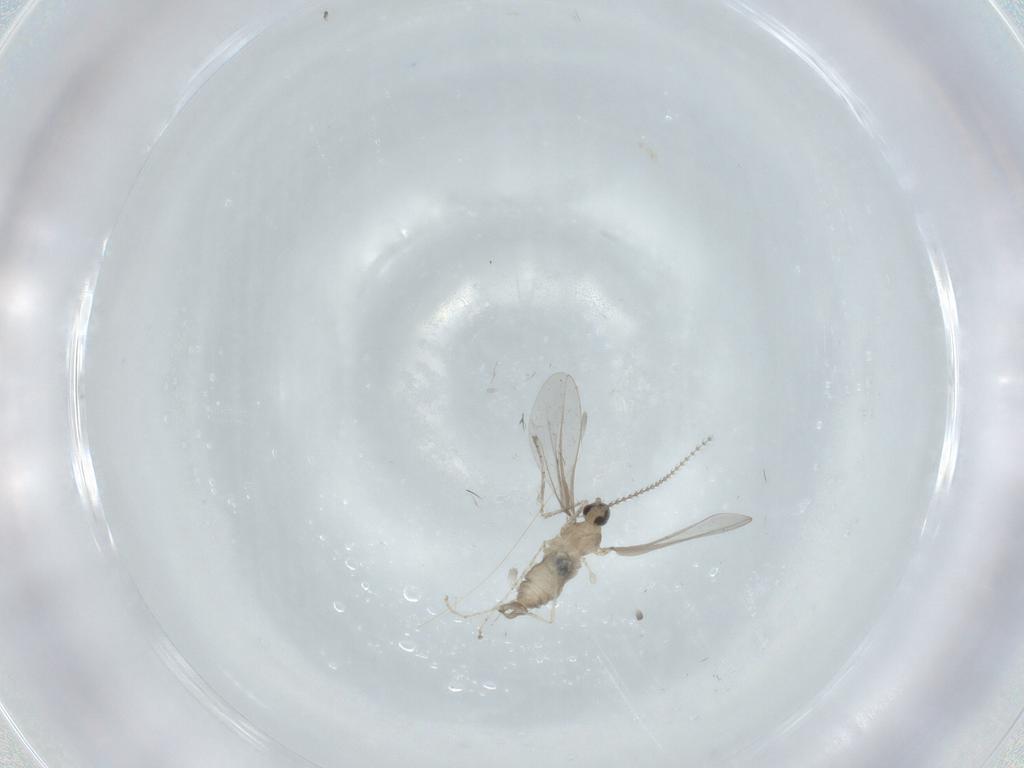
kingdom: Animalia
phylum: Arthropoda
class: Insecta
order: Diptera
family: Cecidomyiidae
